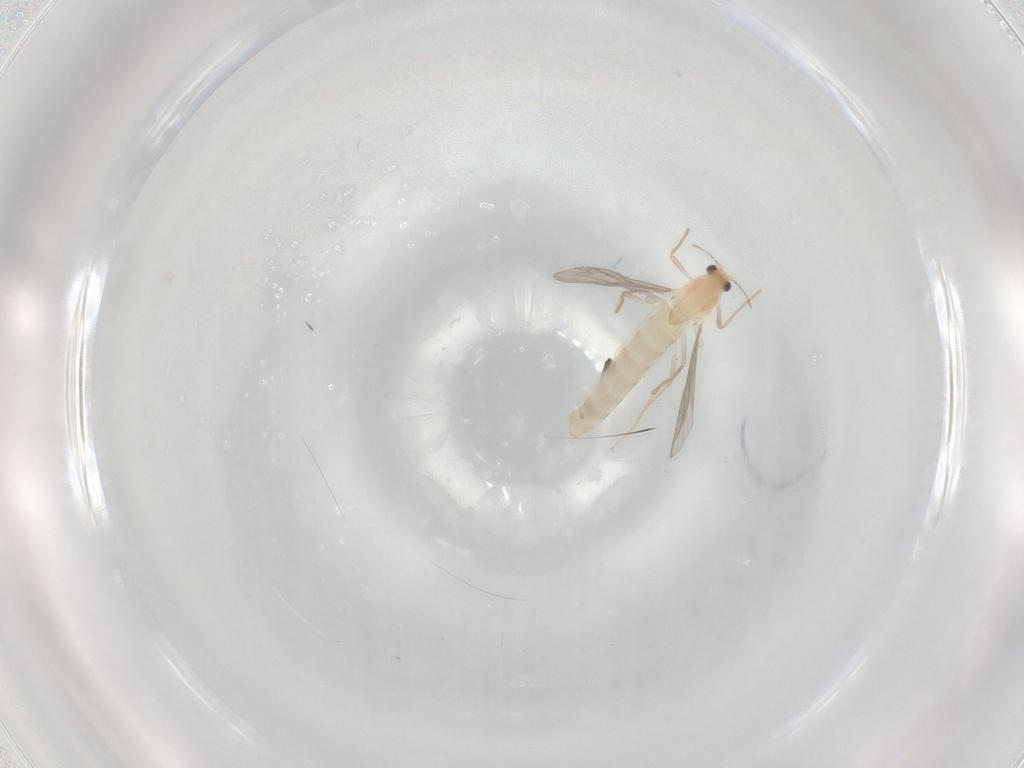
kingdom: Animalia
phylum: Arthropoda
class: Insecta
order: Diptera
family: Chironomidae
